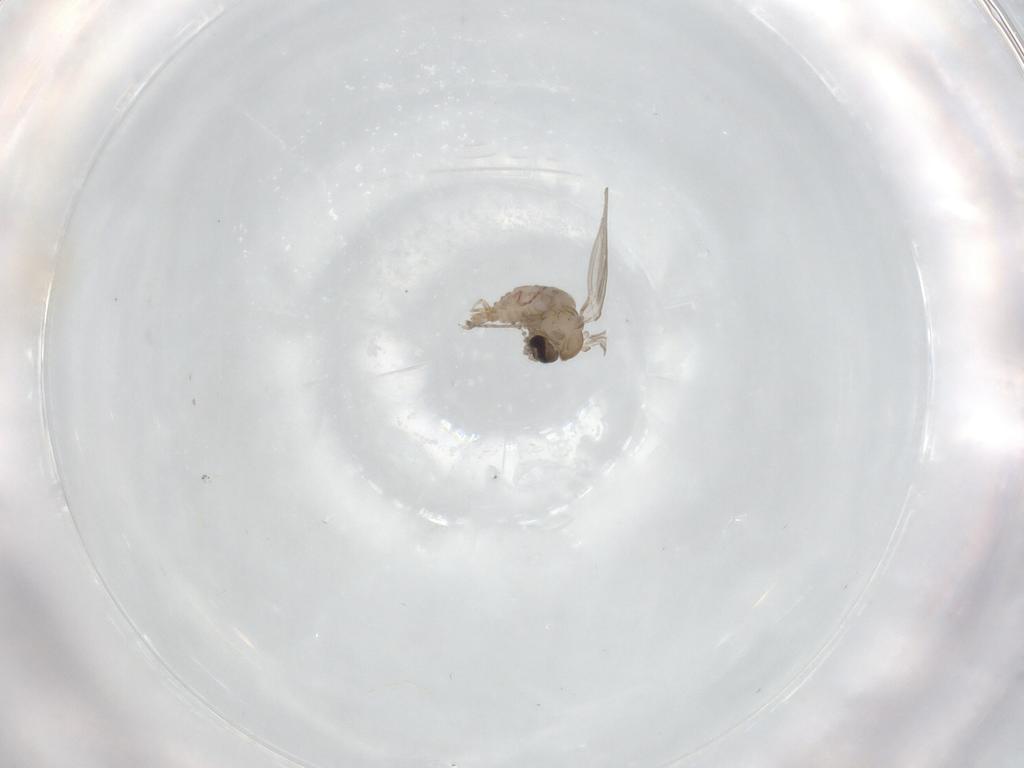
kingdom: Animalia
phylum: Arthropoda
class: Insecta
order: Diptera
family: Psychodidae
